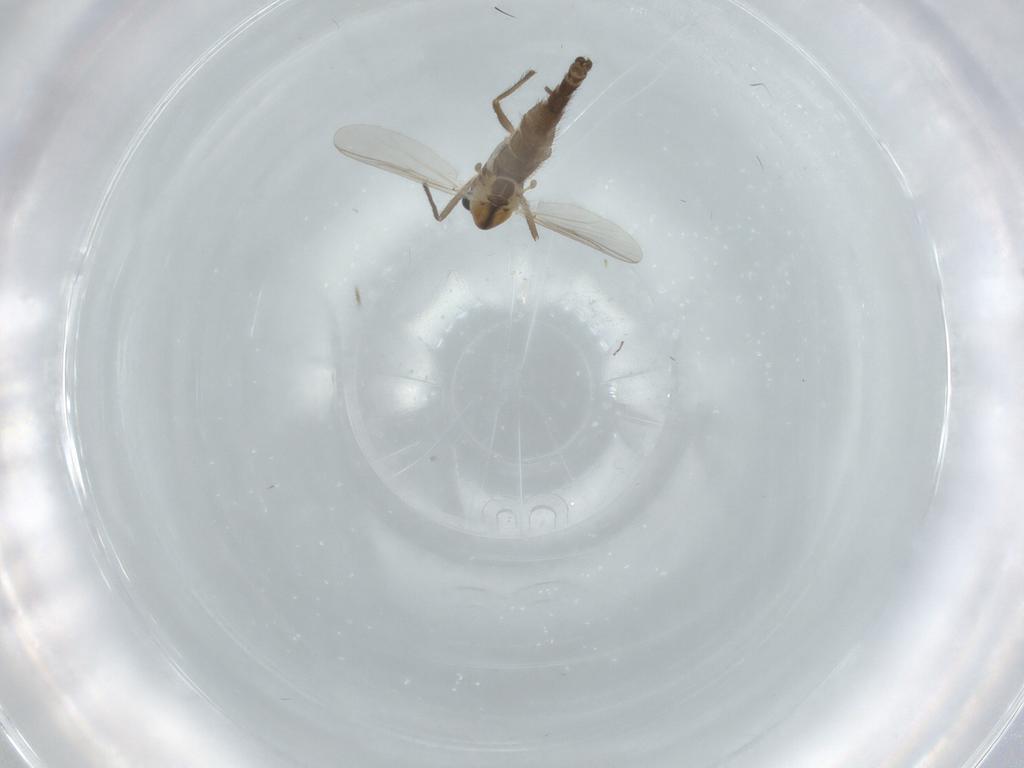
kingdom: Animalia
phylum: Arthropoda
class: Insecta
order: Diptera
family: Chironomidae
